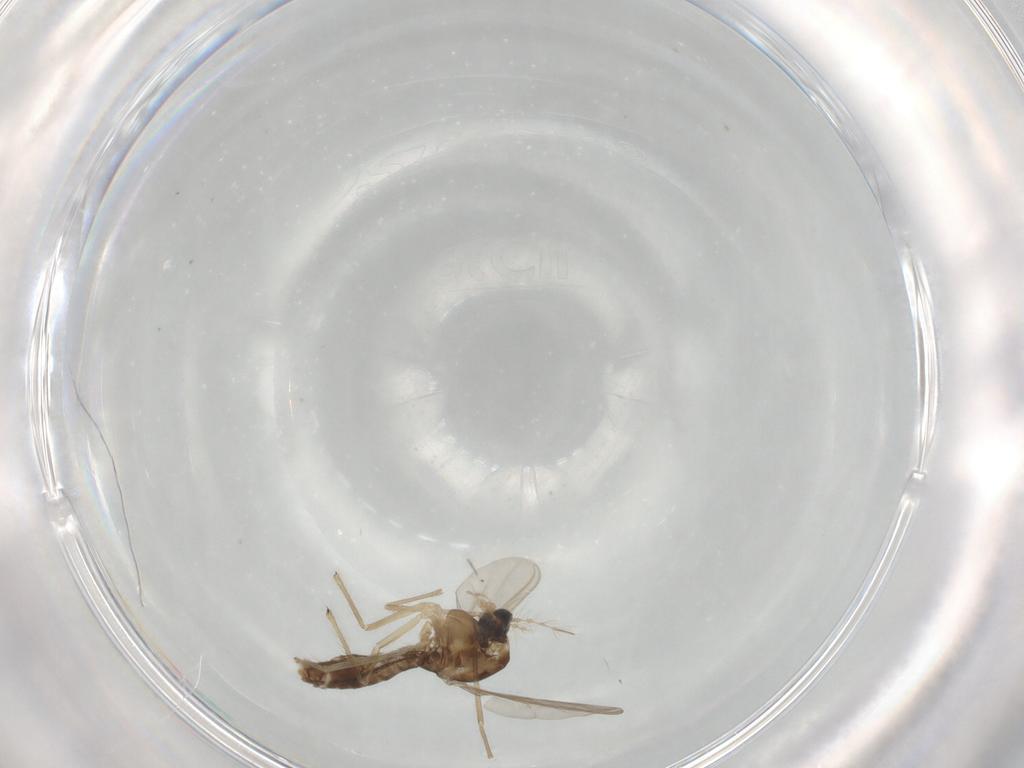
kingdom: Animalia
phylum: Arthropoda
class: Insecta
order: Diptera
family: Chironomidae
